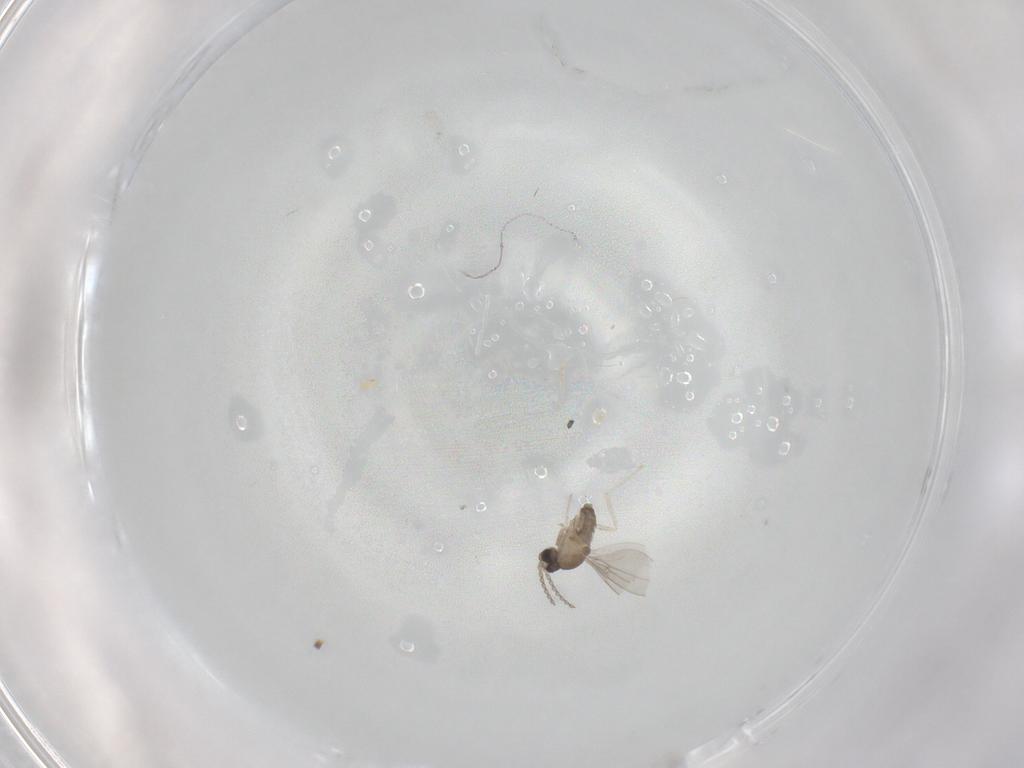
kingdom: Animalia
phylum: Arthropoda
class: Insecta
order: Diptera
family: Cecidomyiidae
